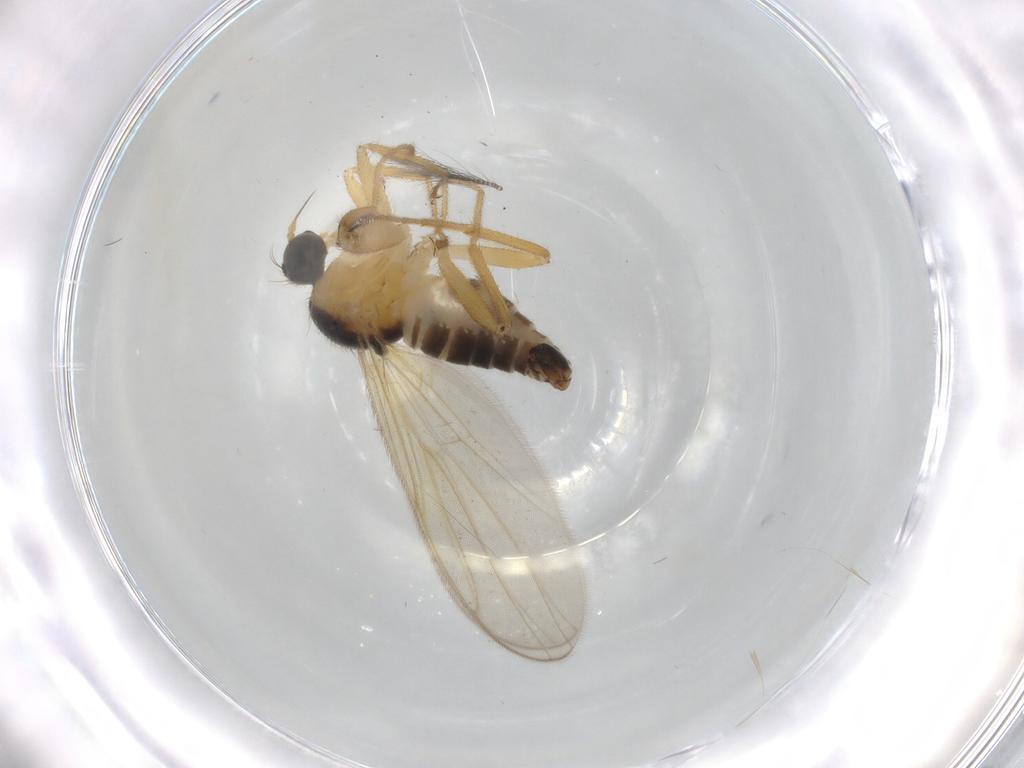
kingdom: Animalia
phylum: Arthropoda
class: Insecta
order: Diptera
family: Hybotidae
